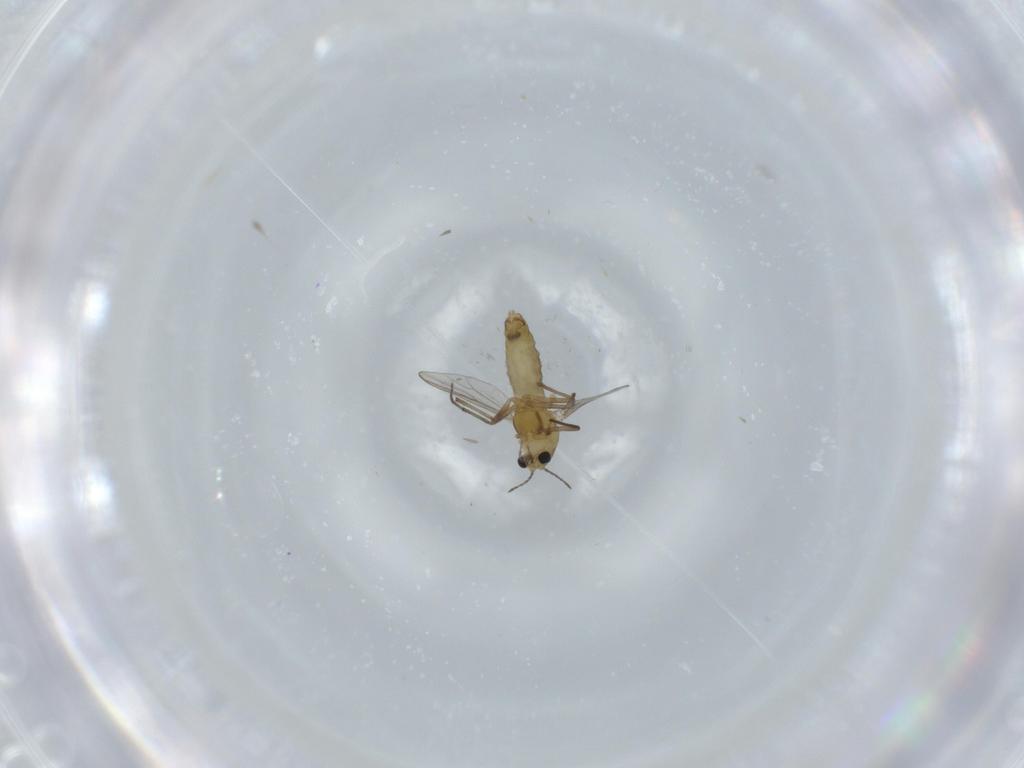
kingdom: Animalia
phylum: Arthropoda
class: Insecta
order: Diptera
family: Chironomidae
